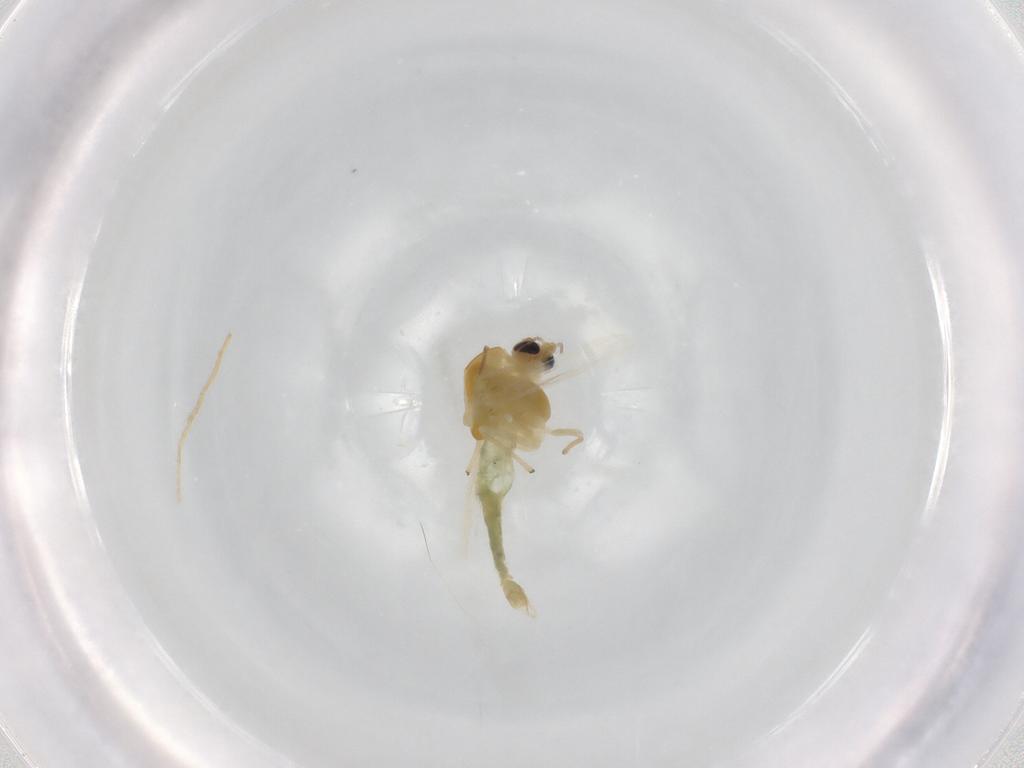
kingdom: Animalia
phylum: Arthropoda
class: Insecta
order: Diptera
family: Chironomidae
